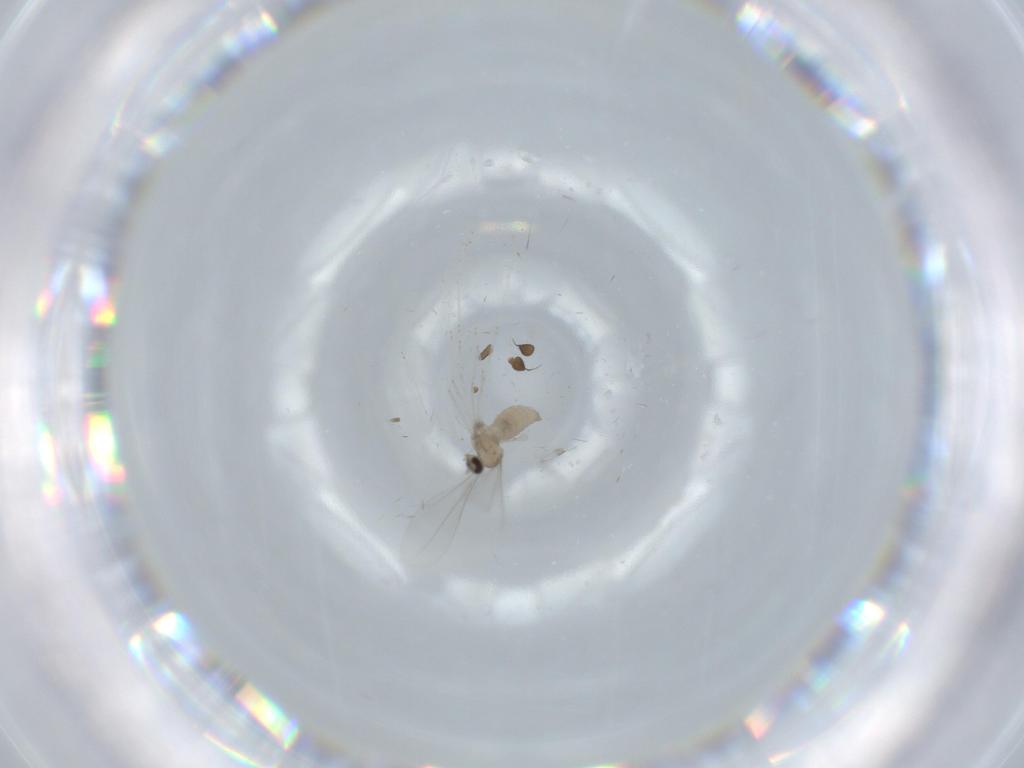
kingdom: Animalia
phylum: Arthropoda
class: Insecta
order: Diptera
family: Cecidomyiidae
